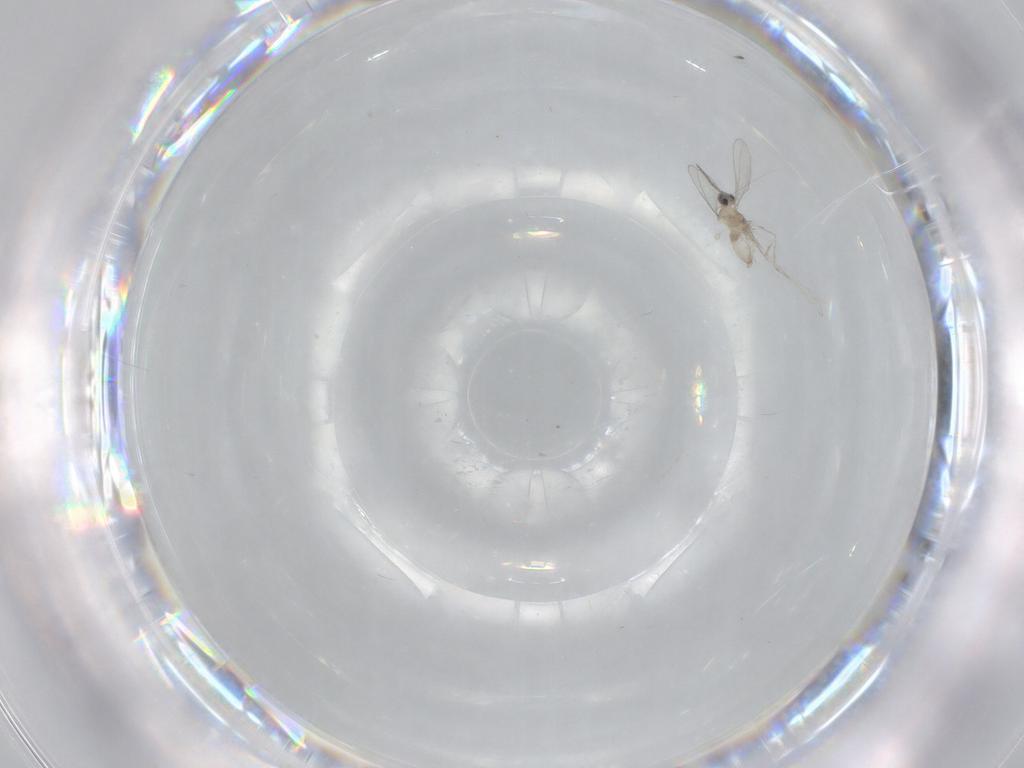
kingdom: Animalia
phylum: Arthropoda
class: Insecta
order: Diptera
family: Cecidomyiidae
